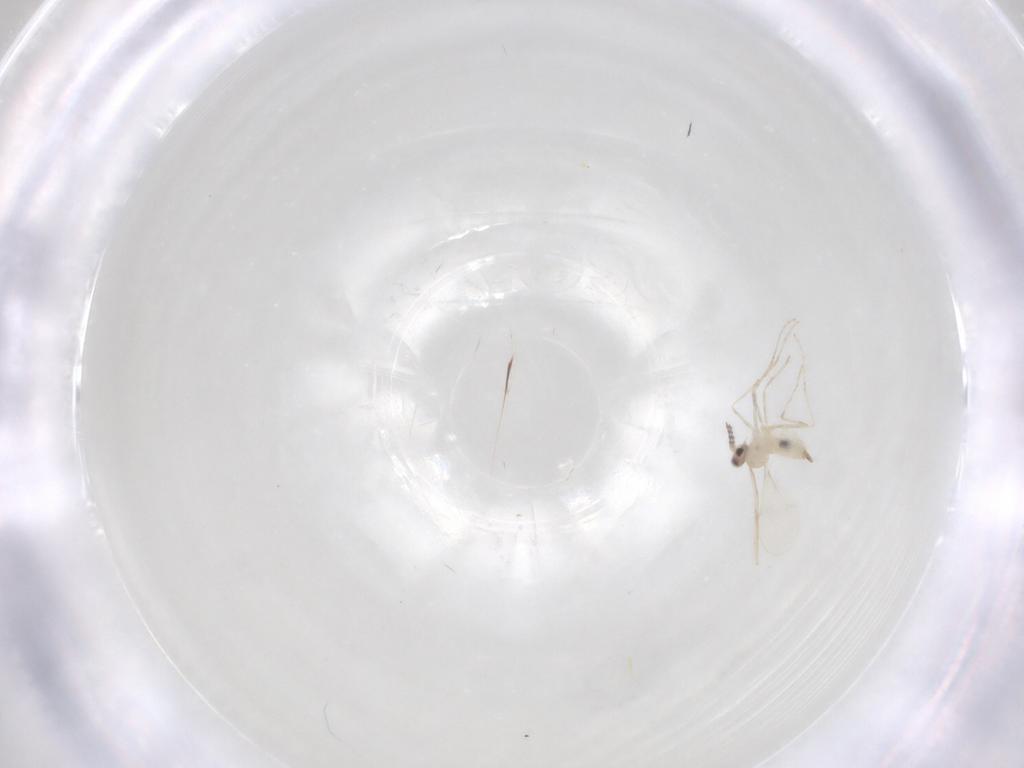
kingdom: Animalia
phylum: Arthropoda
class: Insecta
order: Diptera
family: Cecidomyiidae
